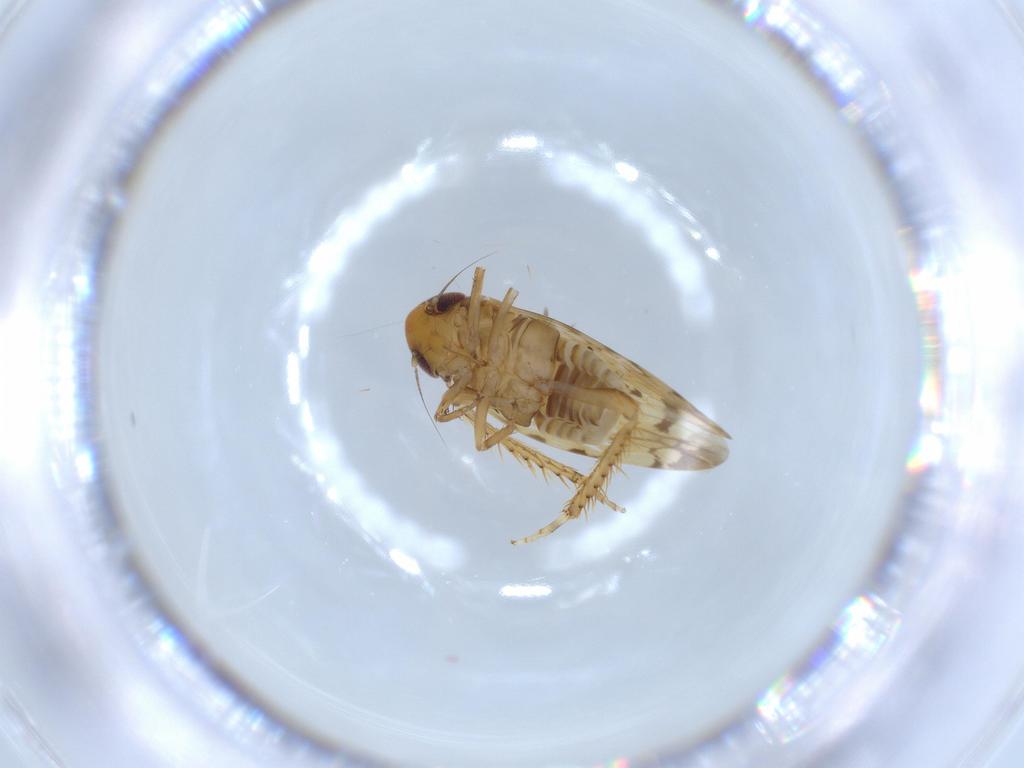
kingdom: Animalia
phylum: Arthropoda
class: Insecta
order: Hemiptera
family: Cicadellidae
